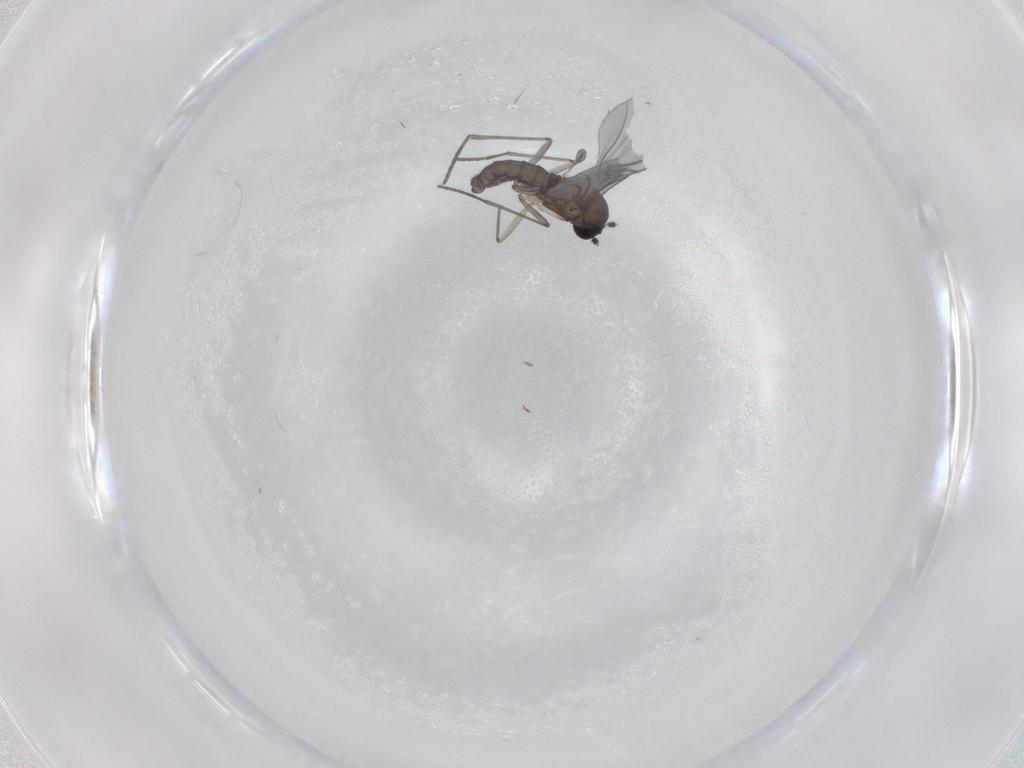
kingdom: Animalia
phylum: Arthropoda
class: Insecta
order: Diptera
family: Sciaridae
